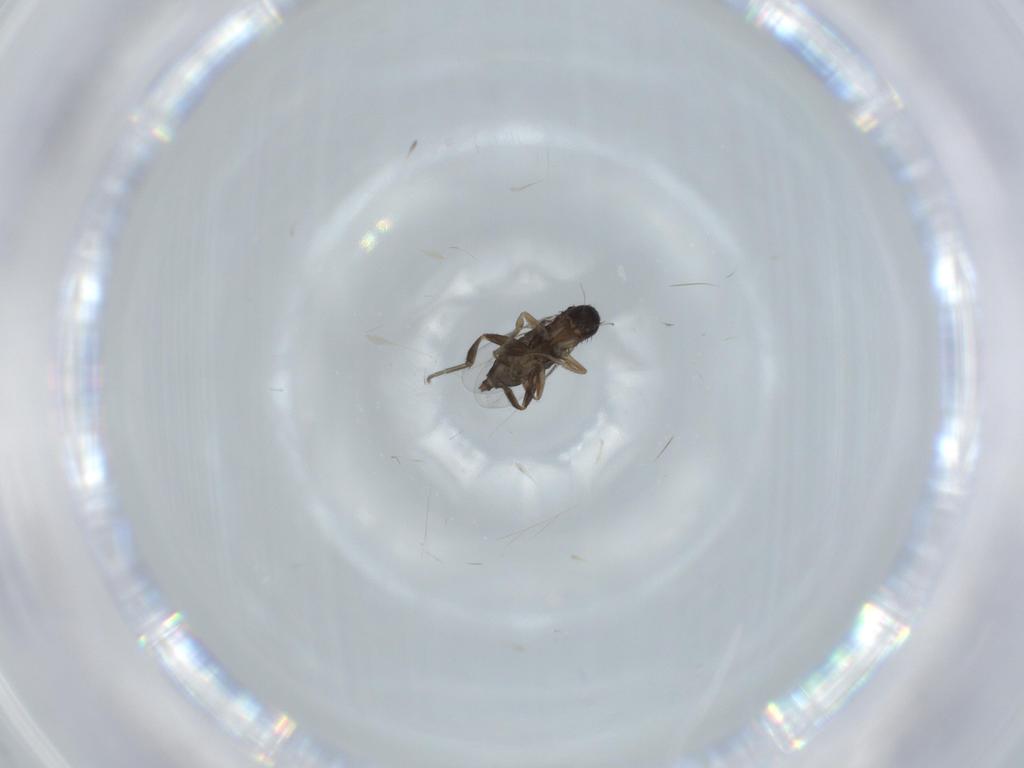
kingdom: Animalia
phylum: Arthropoda
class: Insecta
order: Diptera
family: Phoridae
